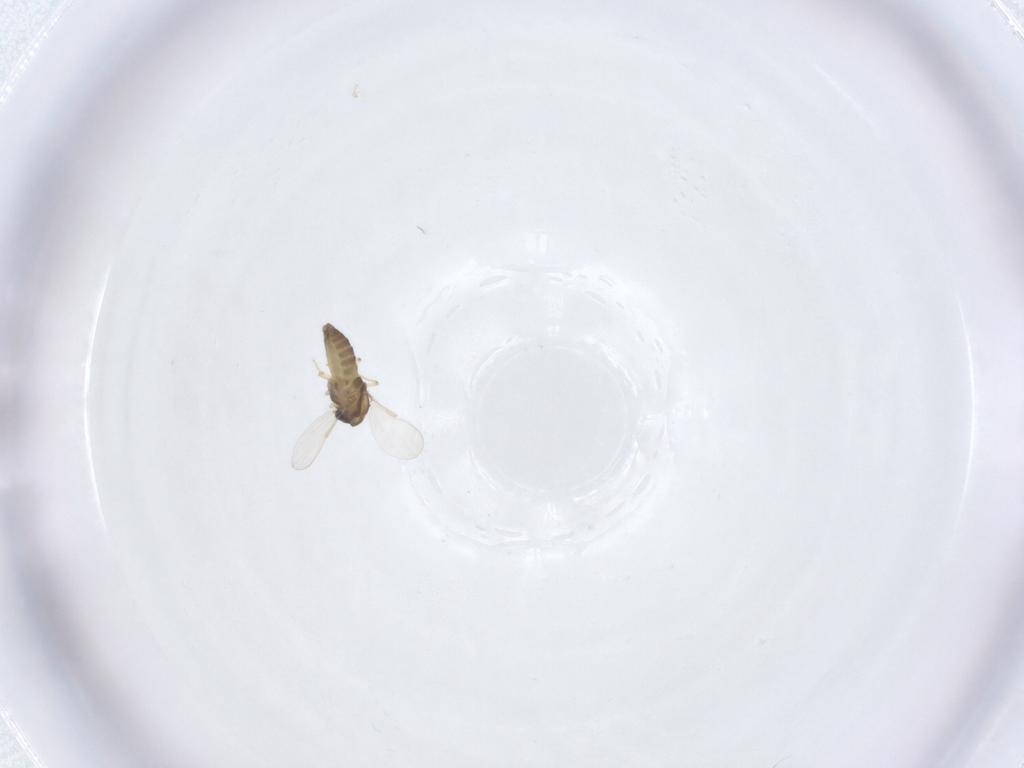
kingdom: Animalia
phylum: Arthropoda
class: Insecta
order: Diptera
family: Chironomidae
